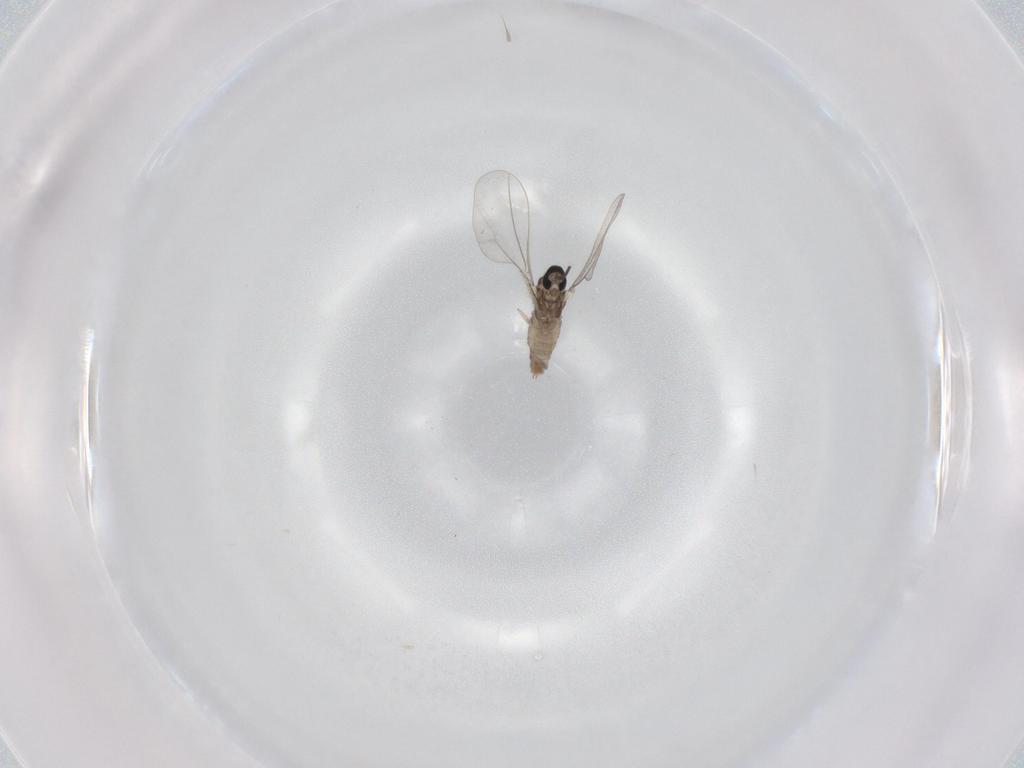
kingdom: Animalia
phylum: Arthropoda
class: Insecta
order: Diptera
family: Cecidomyiidae
